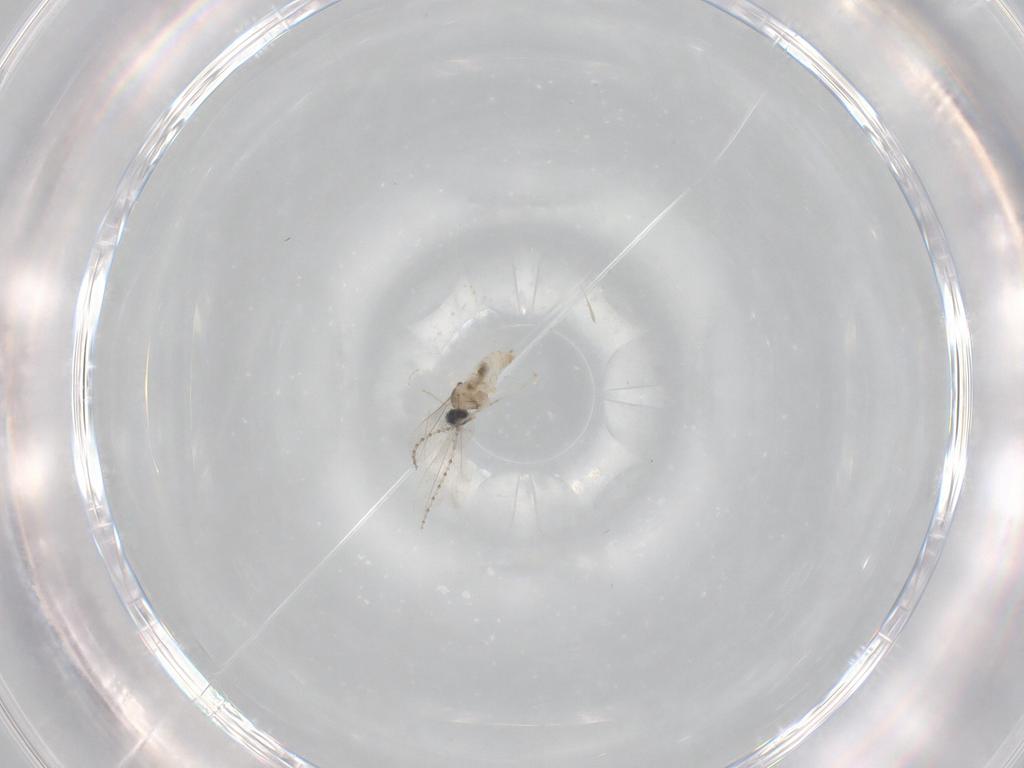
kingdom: Animalia
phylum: Arthropoda
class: Insecta
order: Diptera
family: Cecidomyiidae
